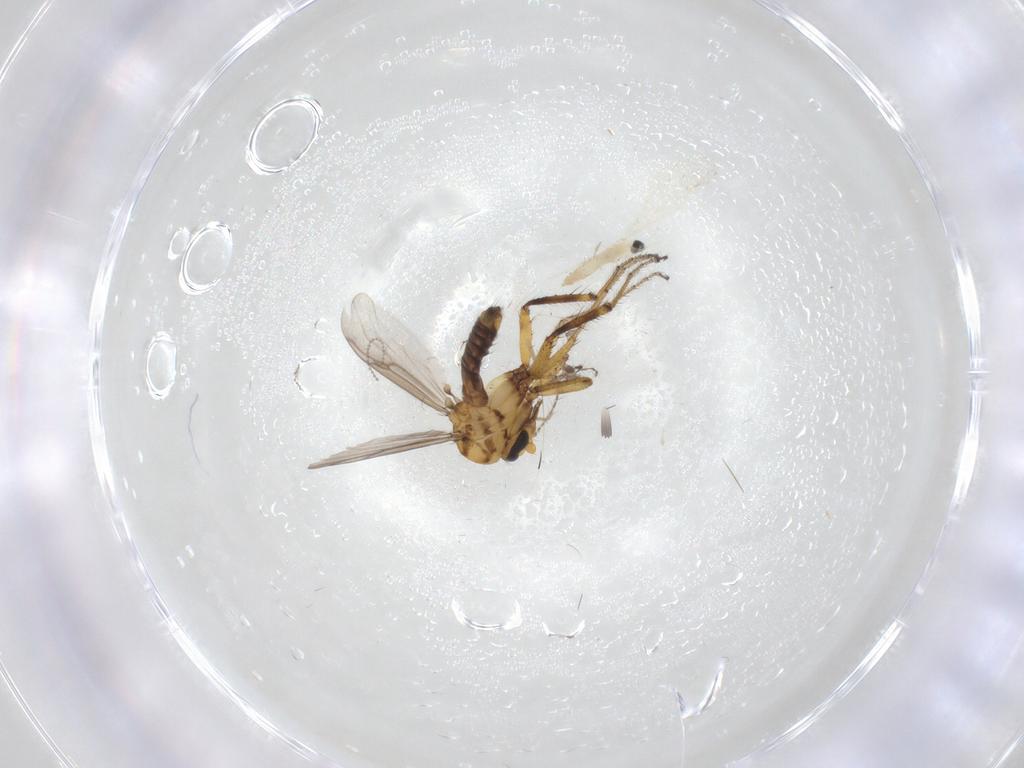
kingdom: Animalia
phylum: Arthropoda
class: Insecta
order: Diptera
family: Cecidomyiidae
